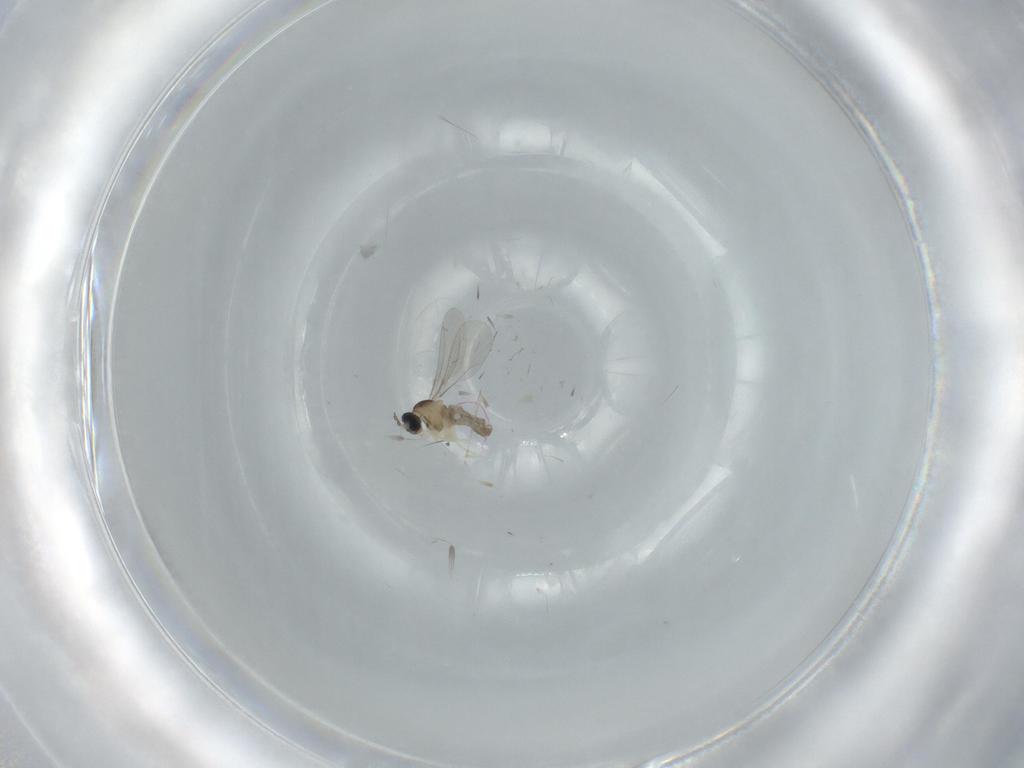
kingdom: Animalia
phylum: Arthropoda
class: Insecta
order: Diptera
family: Cecidomyiidae
